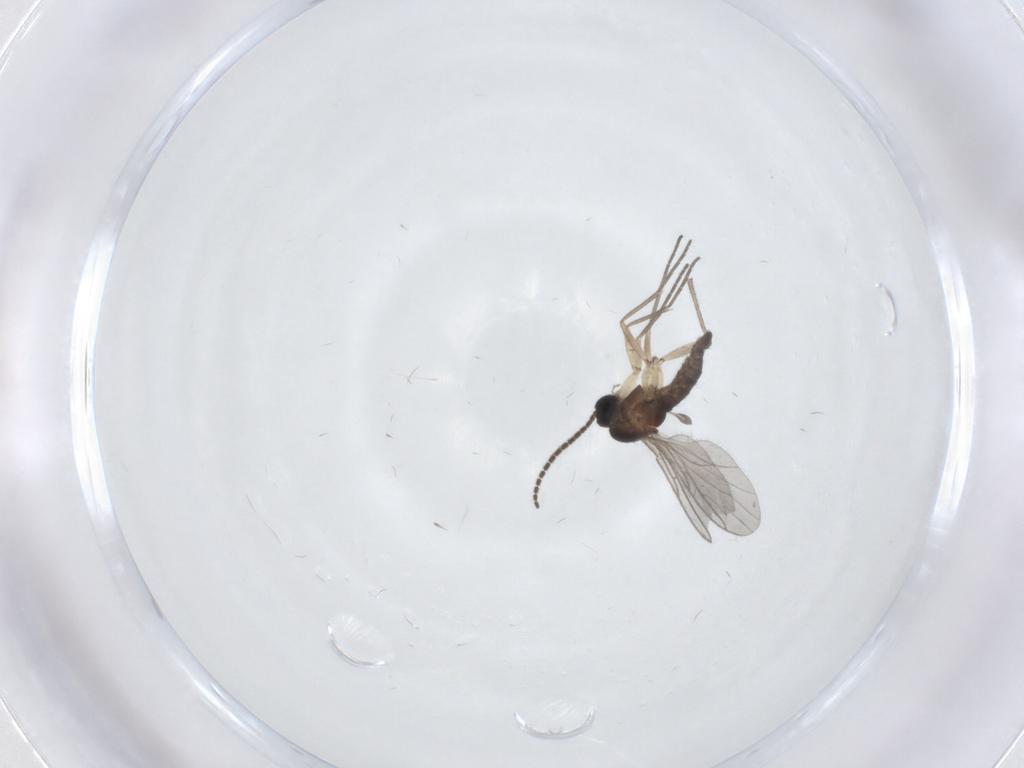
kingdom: Animalia
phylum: Arthropoda
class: Insecta
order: Diptera
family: Sciaridae
